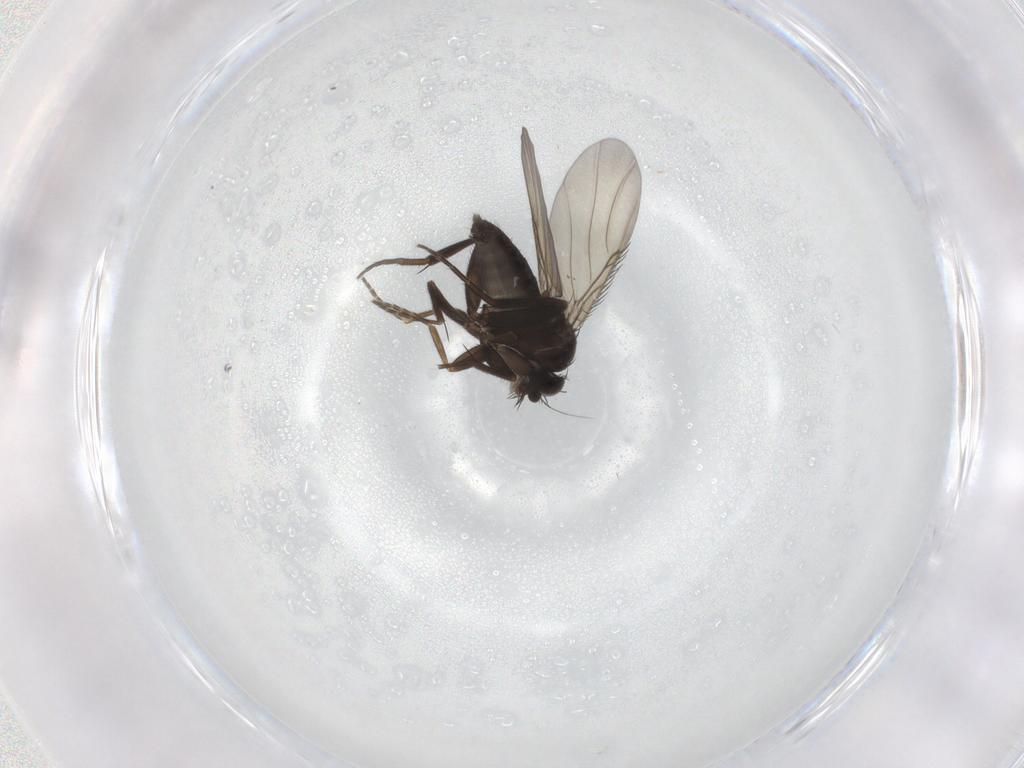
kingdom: Animalia
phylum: Arthropoda
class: Insecta
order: Diptera
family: Phoridae
